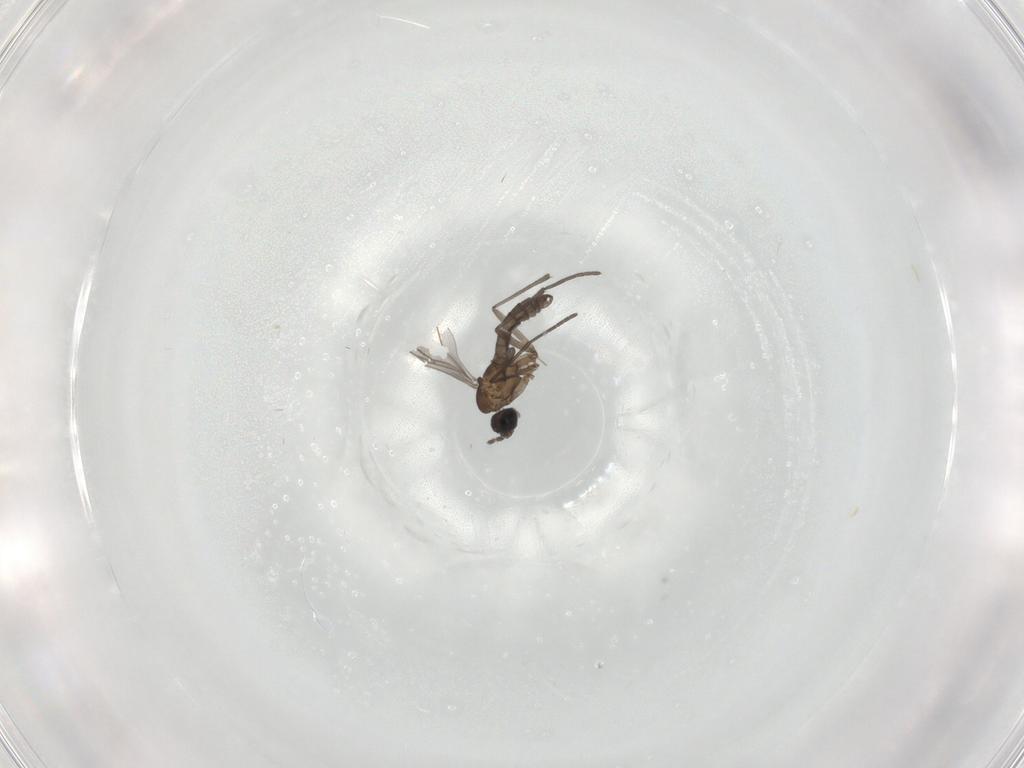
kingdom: Animalia
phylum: Arthropoda
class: Insecta
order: Diptera
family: Sciaridae
